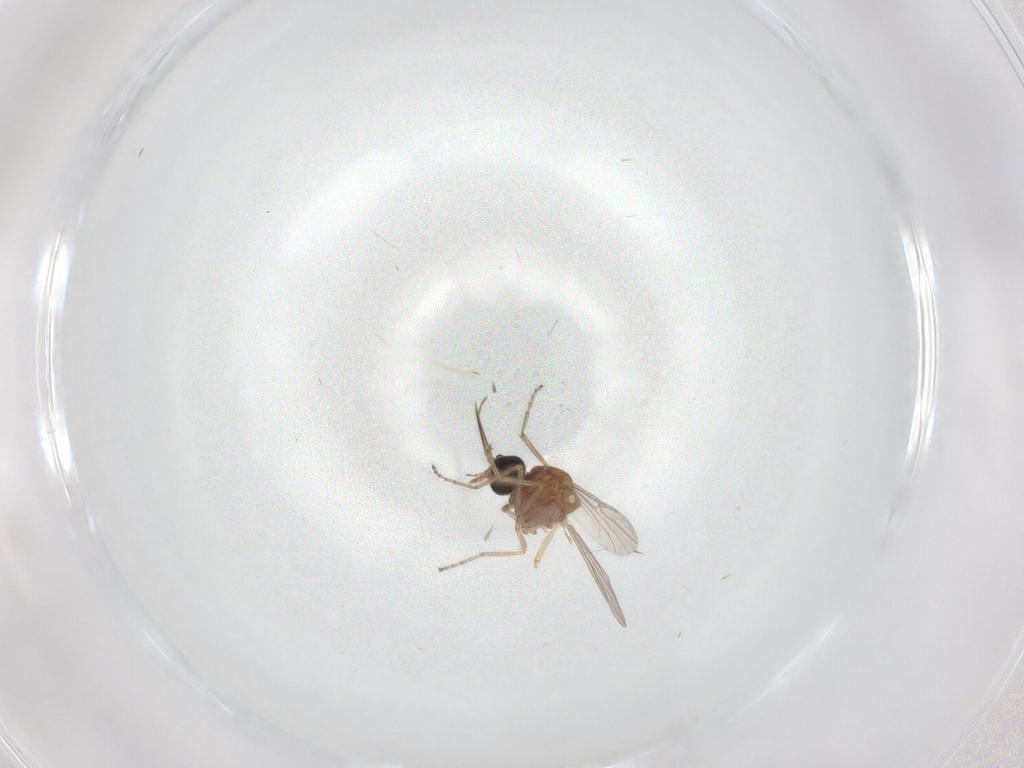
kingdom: Animalia
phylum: Arthropoda
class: Insecta
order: Diptera
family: Ceratopogonidae
